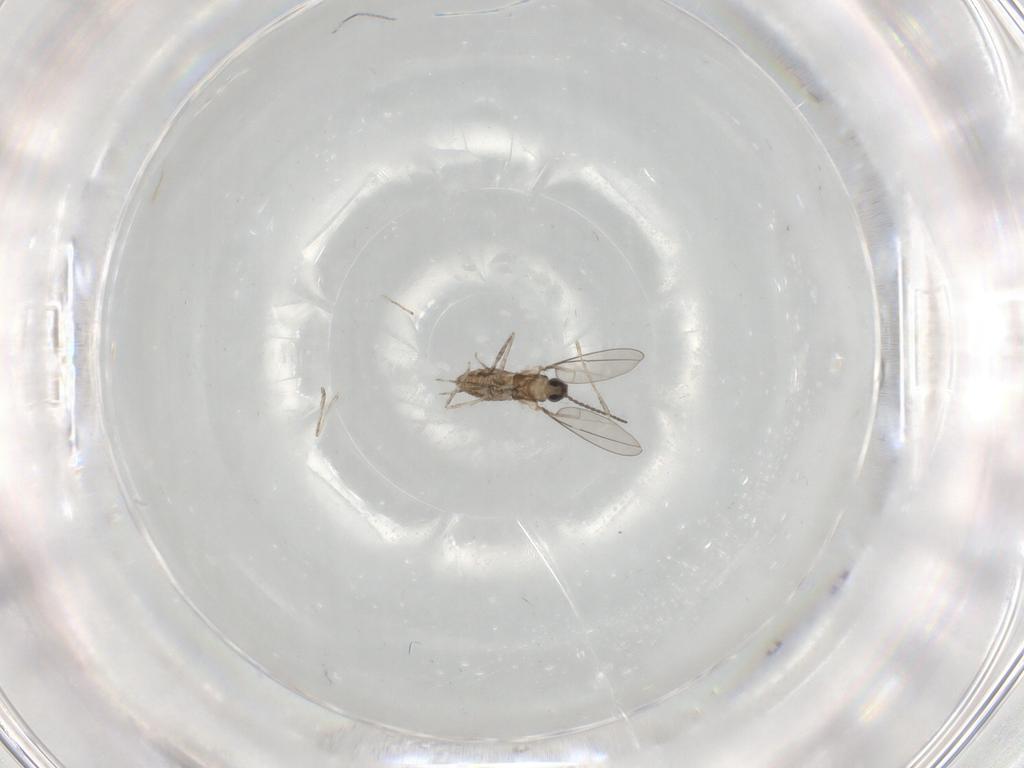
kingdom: Animalia
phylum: Arthropoda
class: Insecta
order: Diptera
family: Cecidomyiidae
